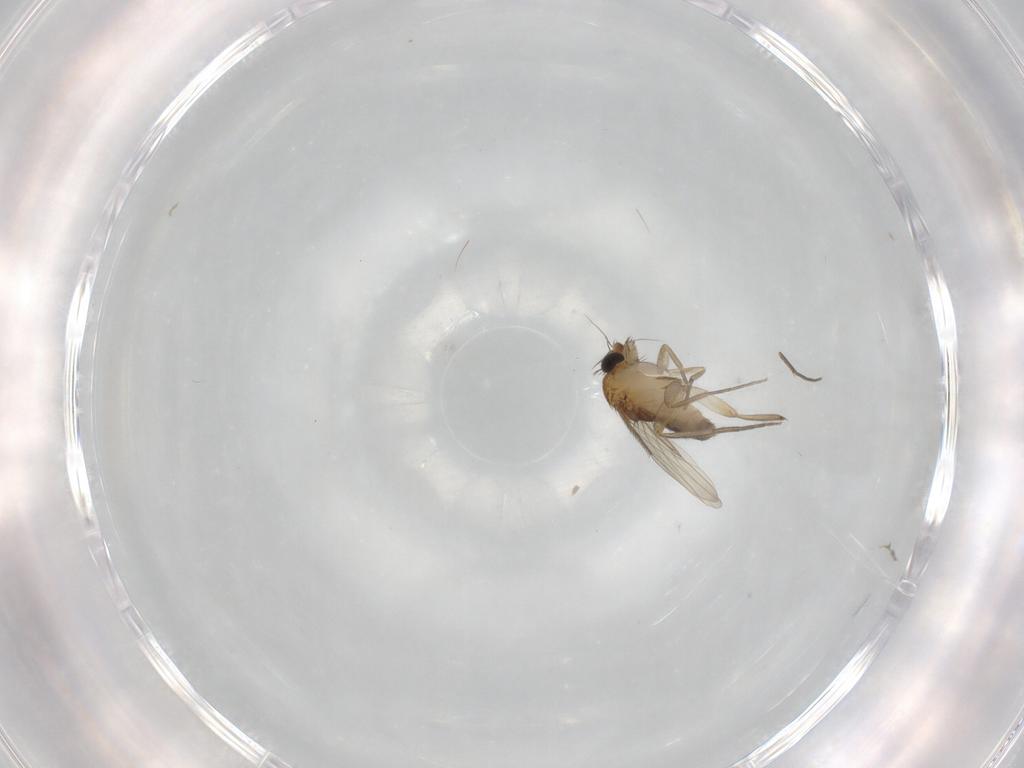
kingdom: Animalia
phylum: Arthropoda
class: Insecta
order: Diptera
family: Phoridae
